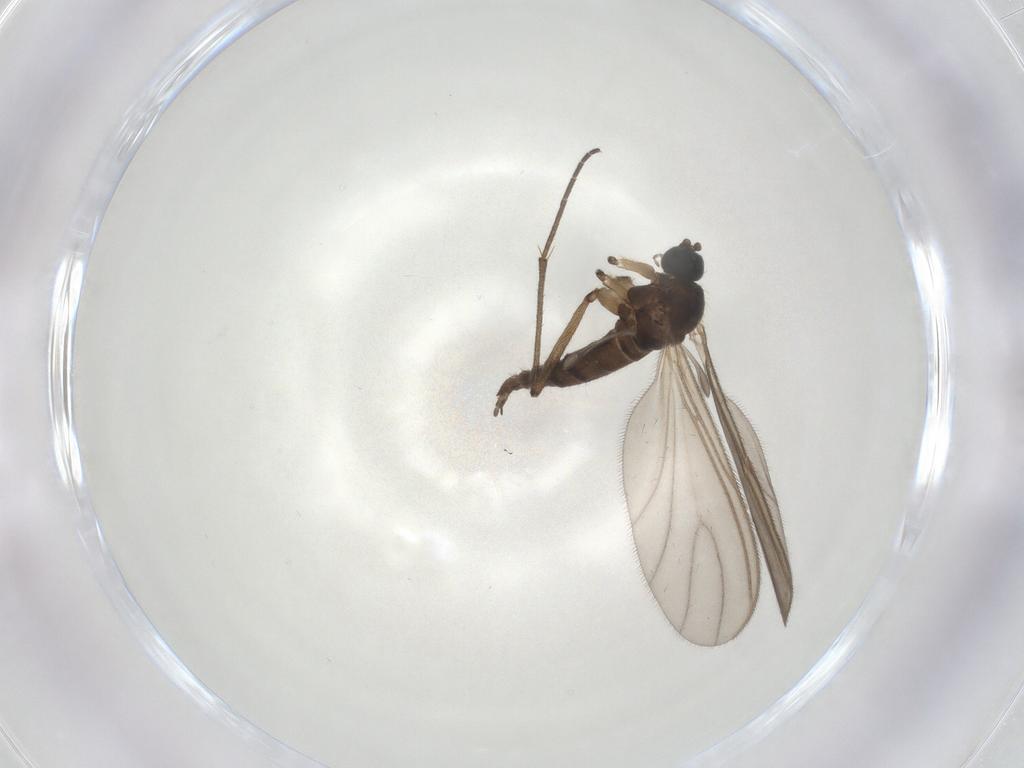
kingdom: Animalia
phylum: Arthropoda
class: Insecta
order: Diptera
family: Sciaridae
